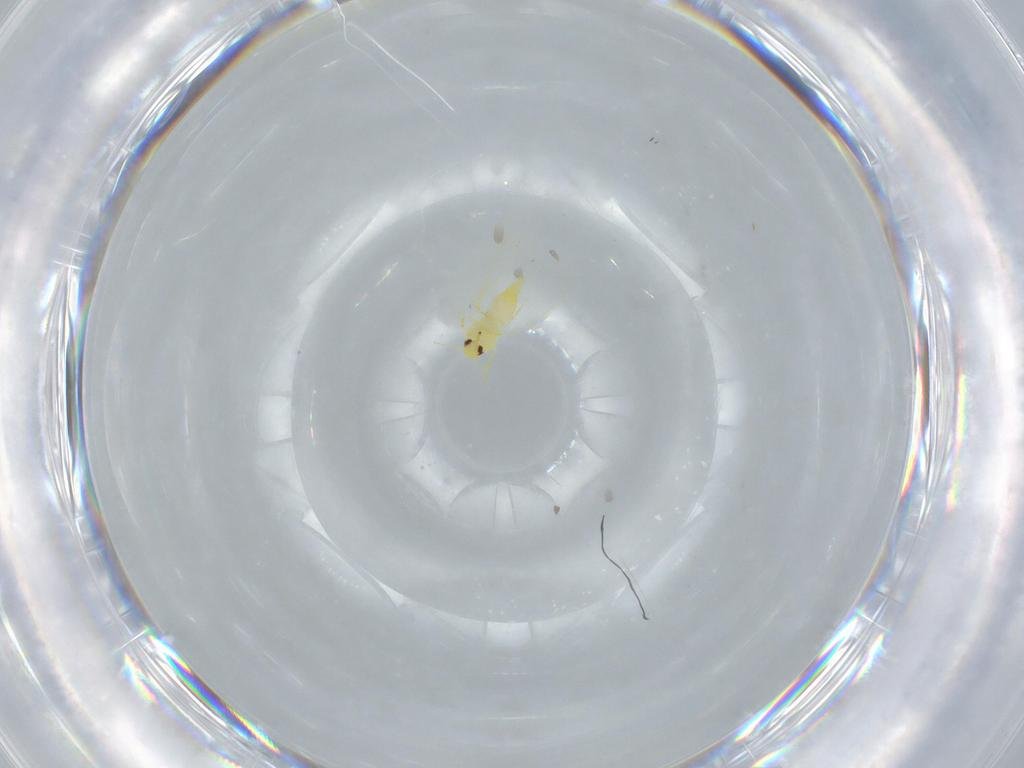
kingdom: Animalia
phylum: Arthropoda
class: Insecta
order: Hemiptera
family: Aleyrodidae
